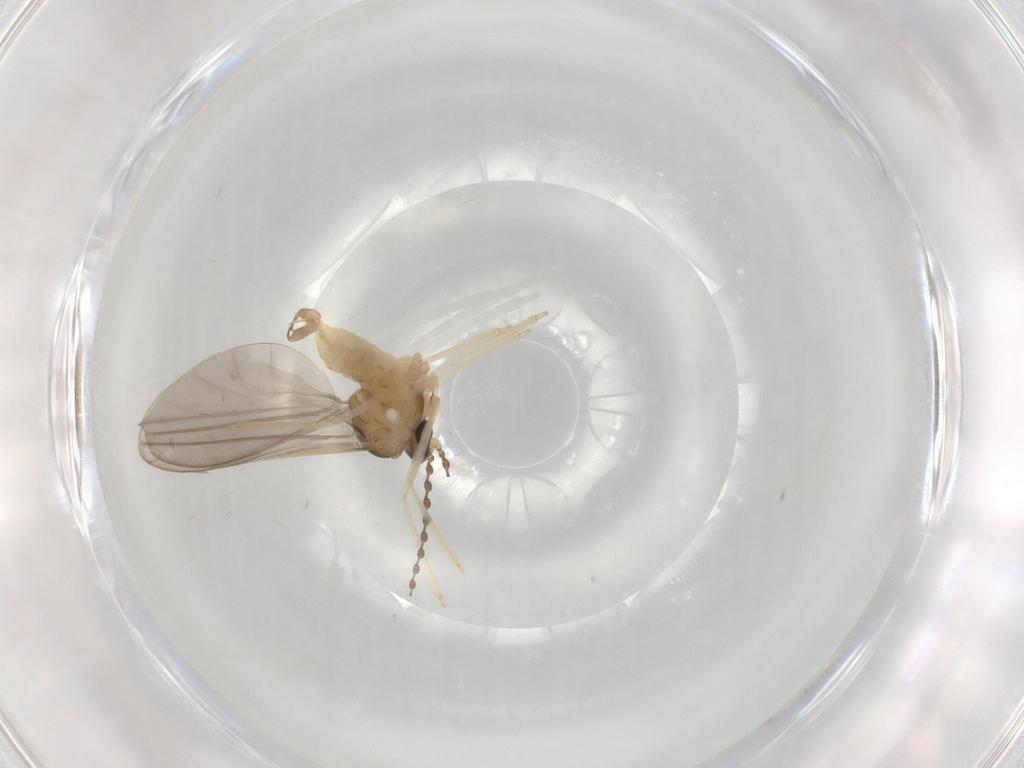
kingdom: Animalia
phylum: Arthropoda
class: Insecta
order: Diptera
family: Cecidomyiidae
